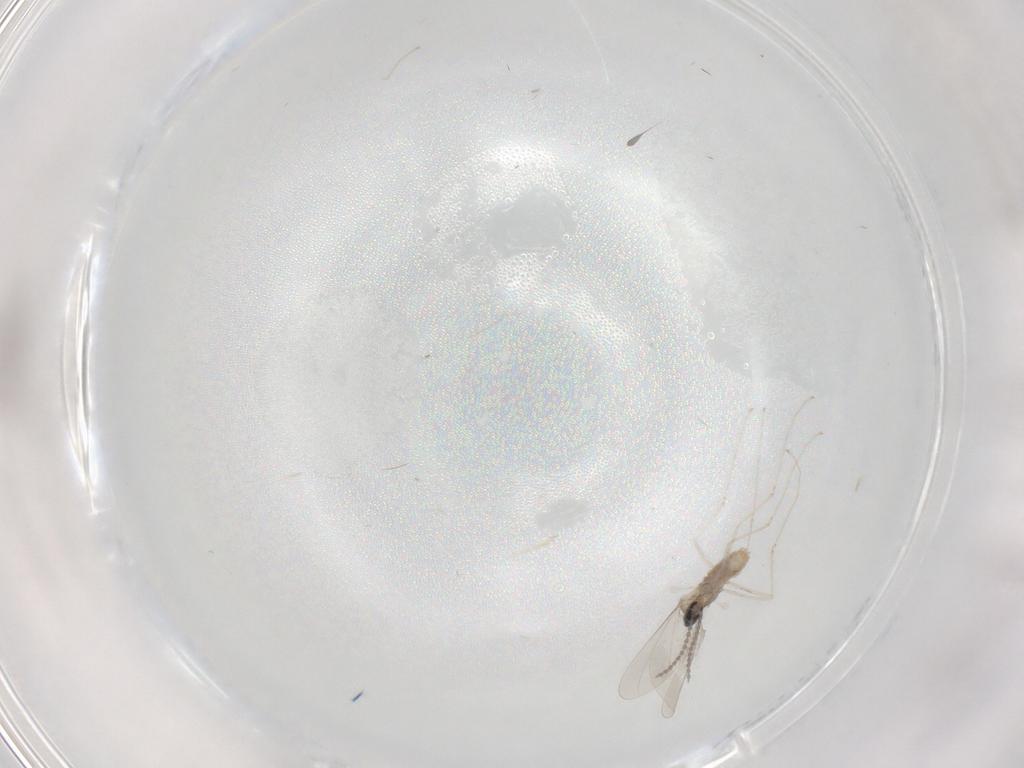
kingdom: Animalia
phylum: Arthropoda
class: Insecta
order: Diptera
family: Cecidomyiidae
